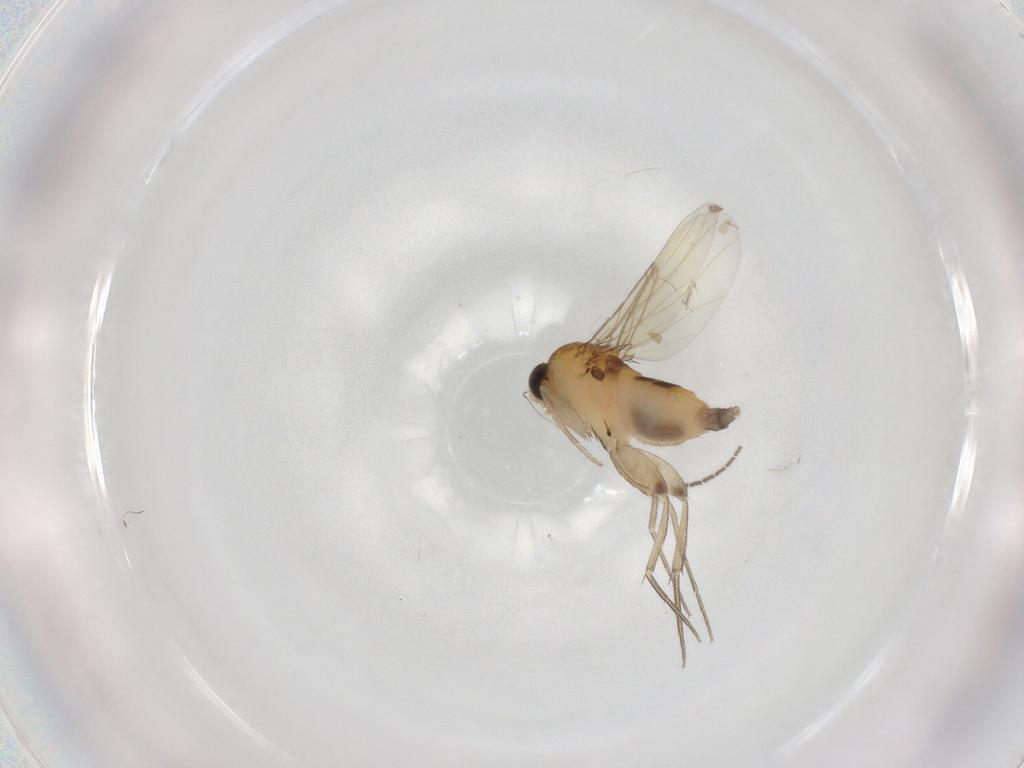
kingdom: Animalia
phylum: Arthropoda
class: Insecta
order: Diptera
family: Phoridae
